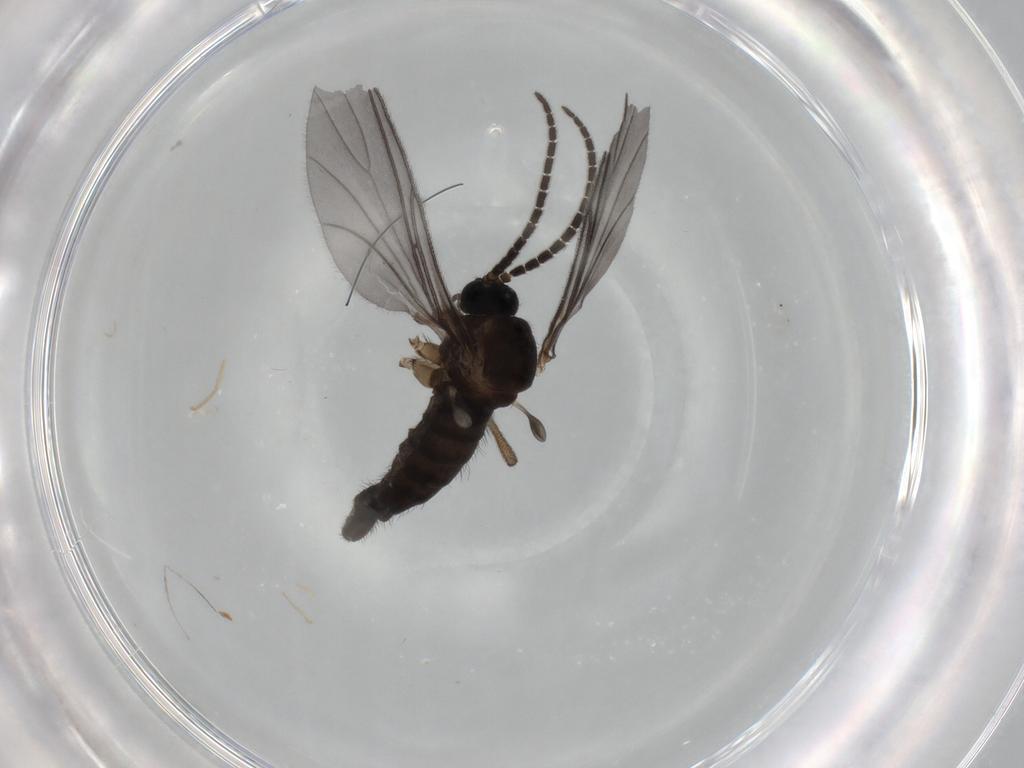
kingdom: Animalia
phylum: Arthropoda
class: Insecta
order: Diptera
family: Sciaridae
